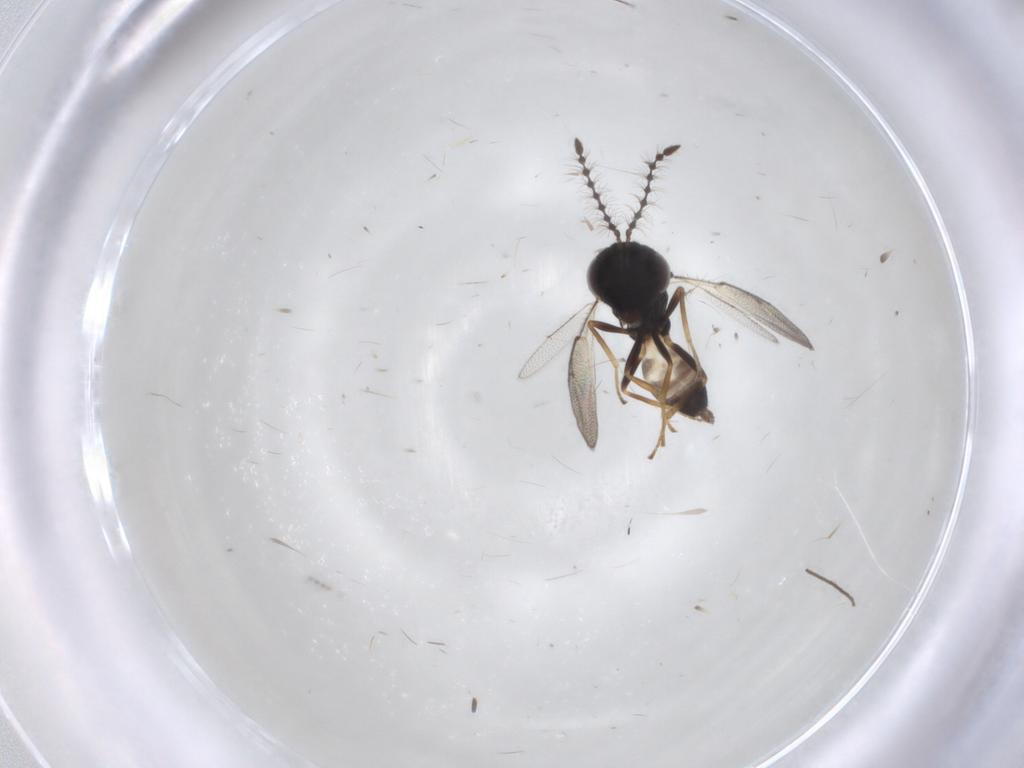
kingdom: Animalia
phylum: Arthropoda
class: Insecta
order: Hymenoptera
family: Pteromalidae
